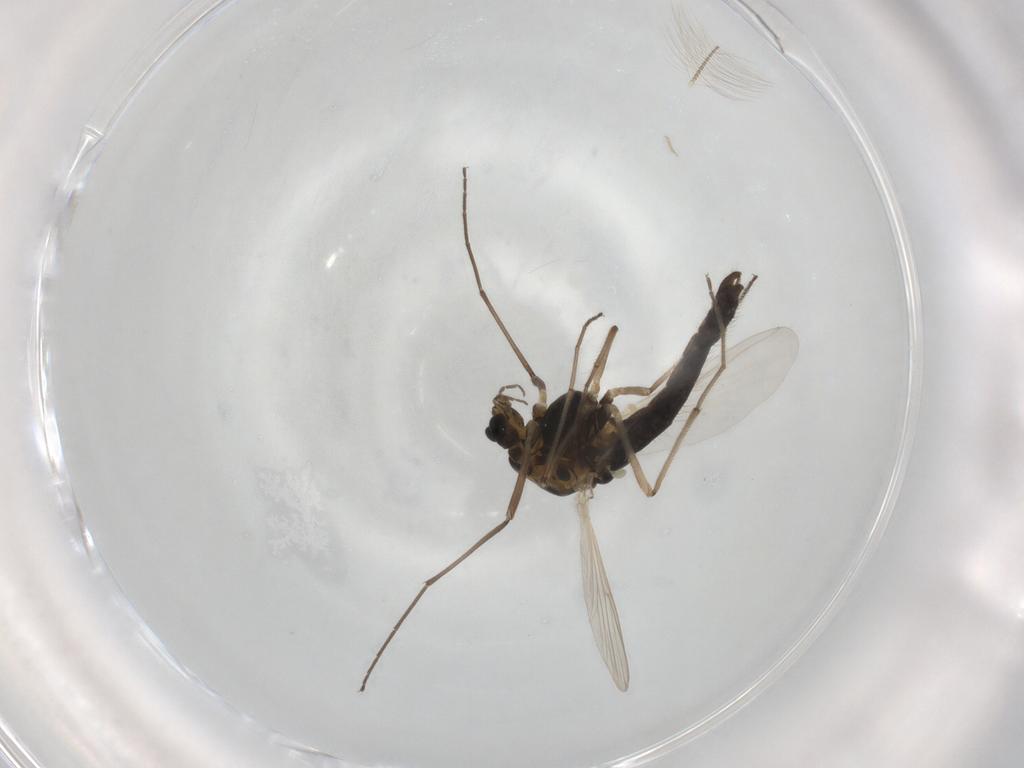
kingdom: Animalia
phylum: Arthropoda
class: Insecta
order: Diptera
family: Chironomidae
